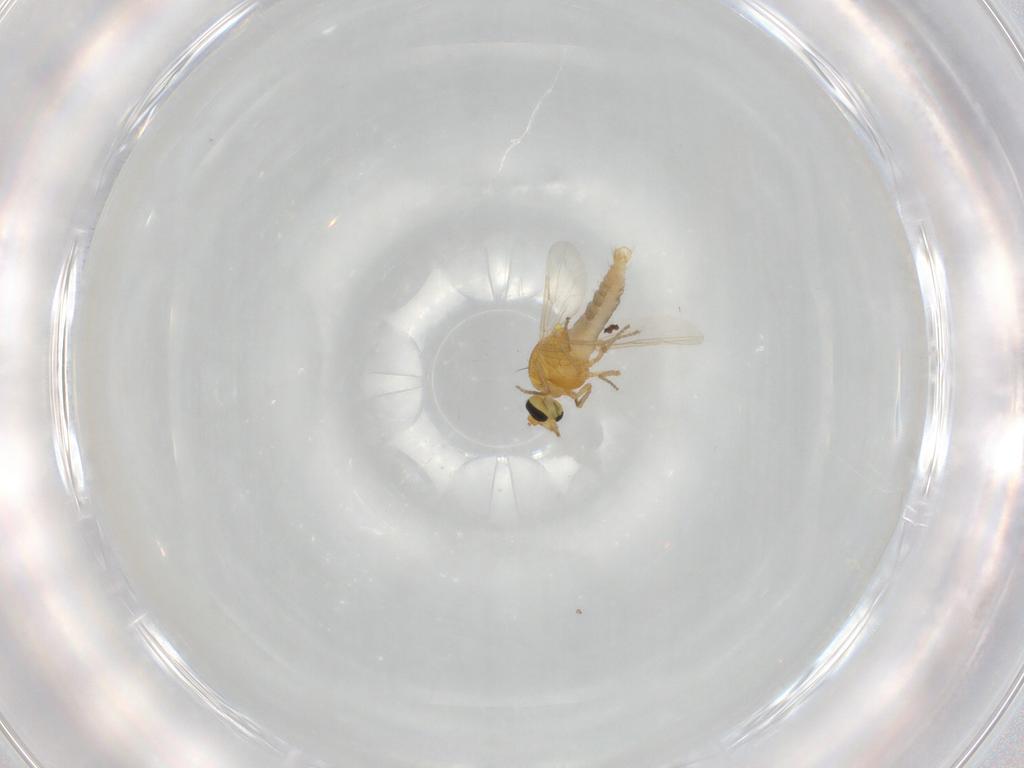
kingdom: Animalia
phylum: Arthropoda
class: Insecta
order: Diptera
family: Ceratopogonidae
